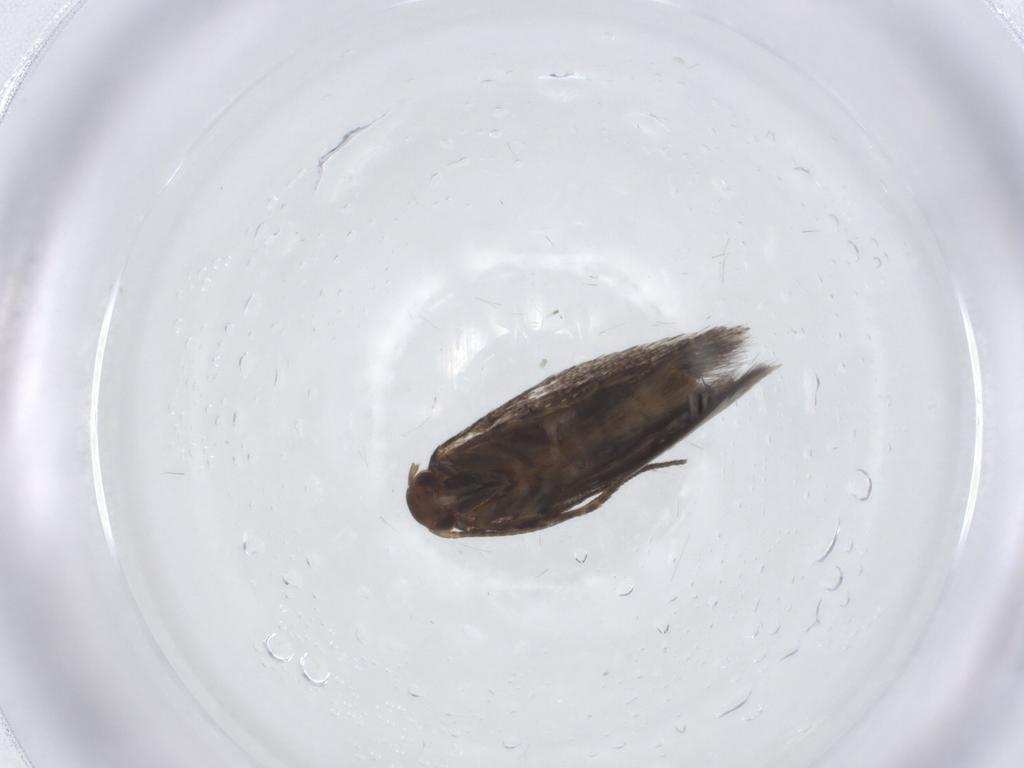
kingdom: Animalia
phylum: Arthropoda
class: Insecta
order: Lepidoptera
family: Elachistidae
